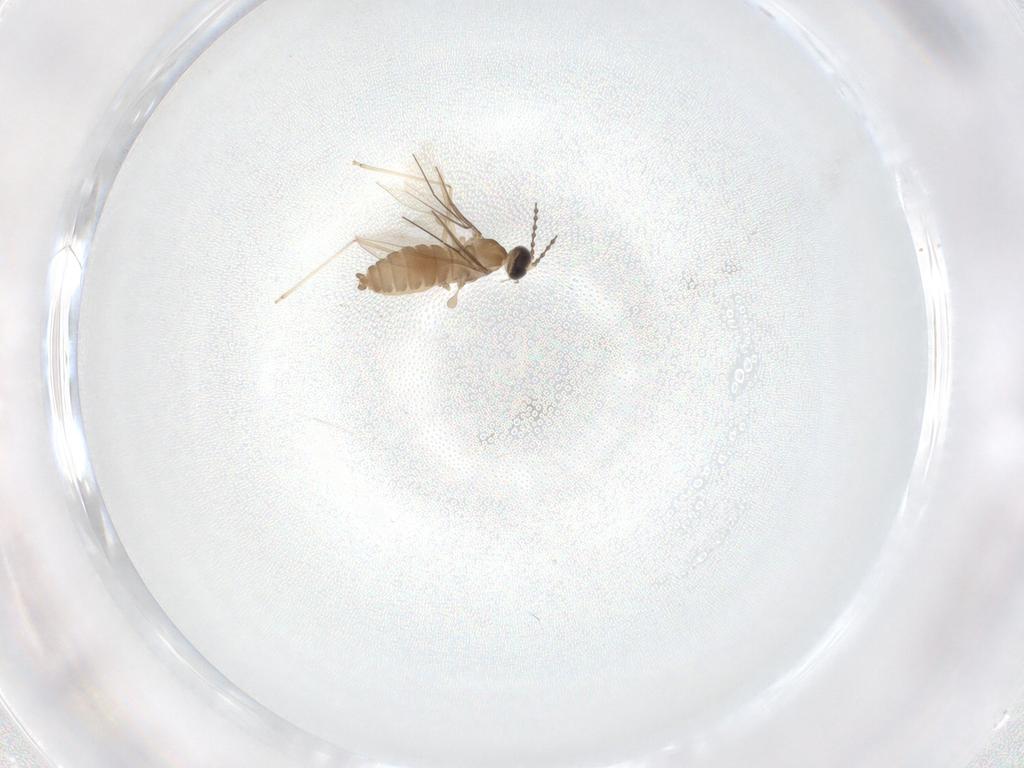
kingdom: Animalia
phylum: Arthropoda
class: Insecta
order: Diptera
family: Cecidomyiidae
